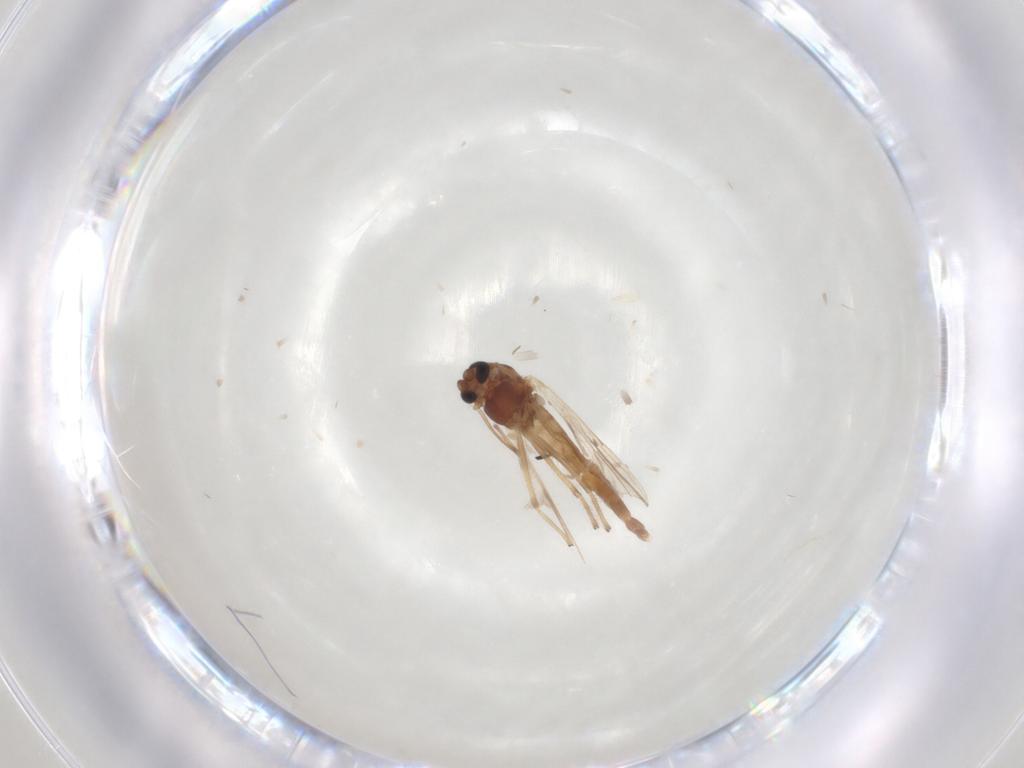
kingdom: Animalia
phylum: Arthropoda
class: Insecta
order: Diptera
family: Chironomidae
